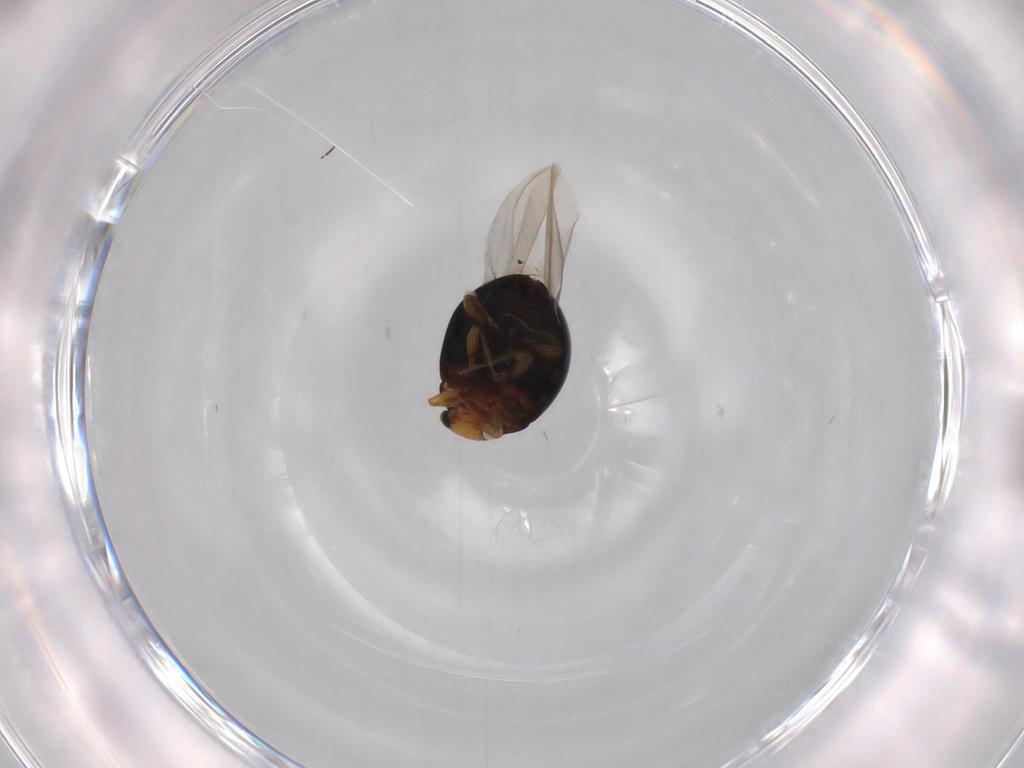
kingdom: Animalia
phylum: Arthropoda
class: Insecta
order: Coleoptera
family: Coccinellidae
